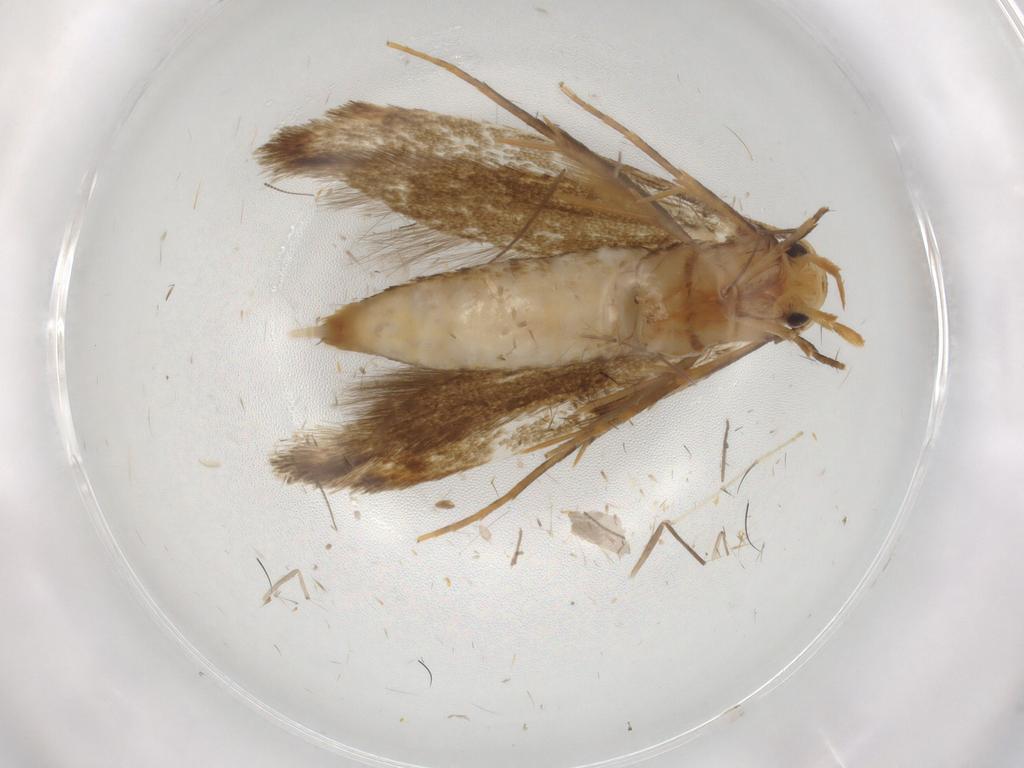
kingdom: Animalia
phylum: Arthropoda
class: Insecta
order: Lepidoptera
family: Tineidae
